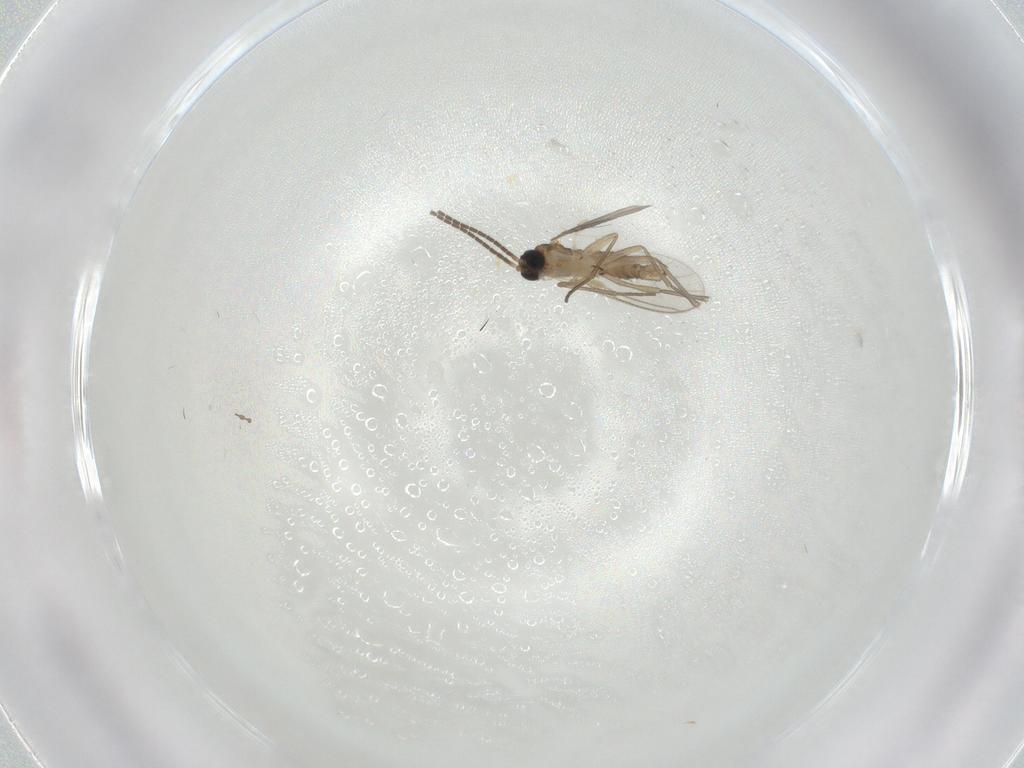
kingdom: Animalia
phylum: Arthropoda
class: Insecta
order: Diptera
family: Cecidomyiidae
